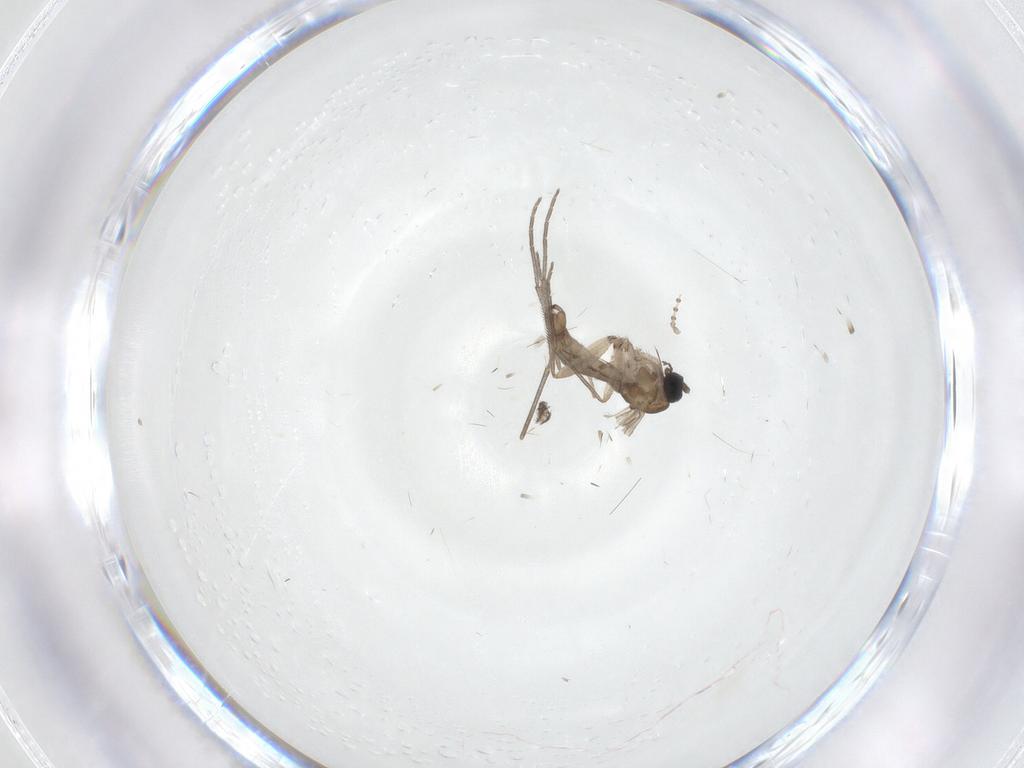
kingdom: Animalia
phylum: Arthropoda
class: Insecta
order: Diptera
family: Sciaridae
